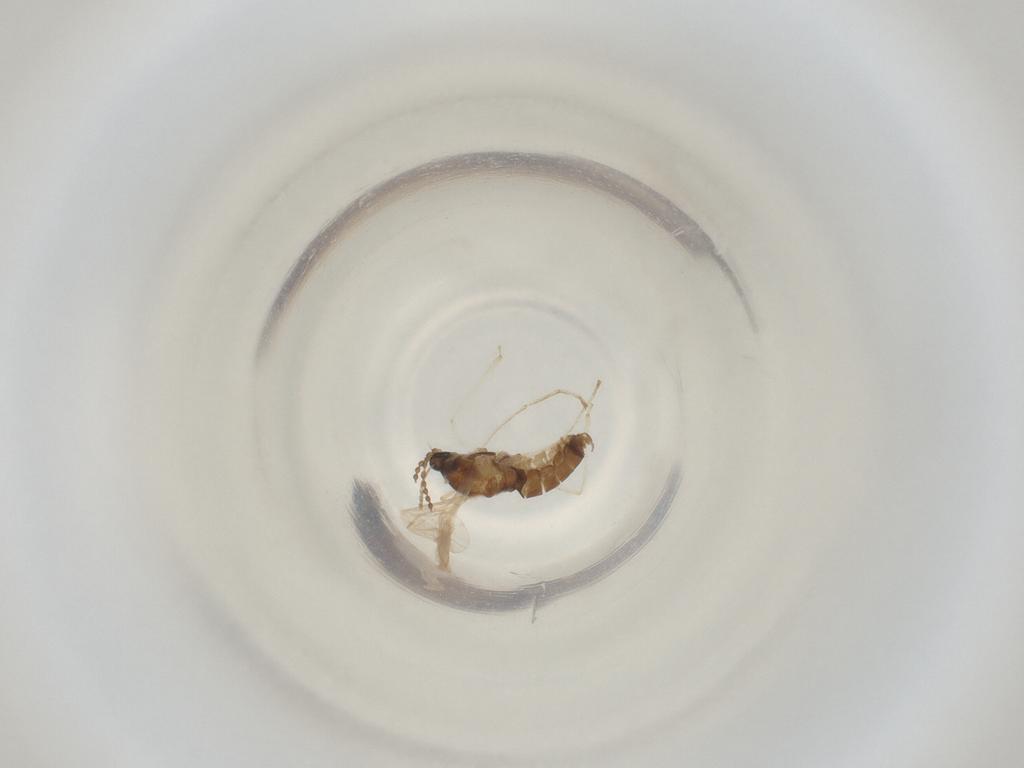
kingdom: Animalia
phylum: Arthropoda
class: Insecta
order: Diptera
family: Cecidomyiidae
